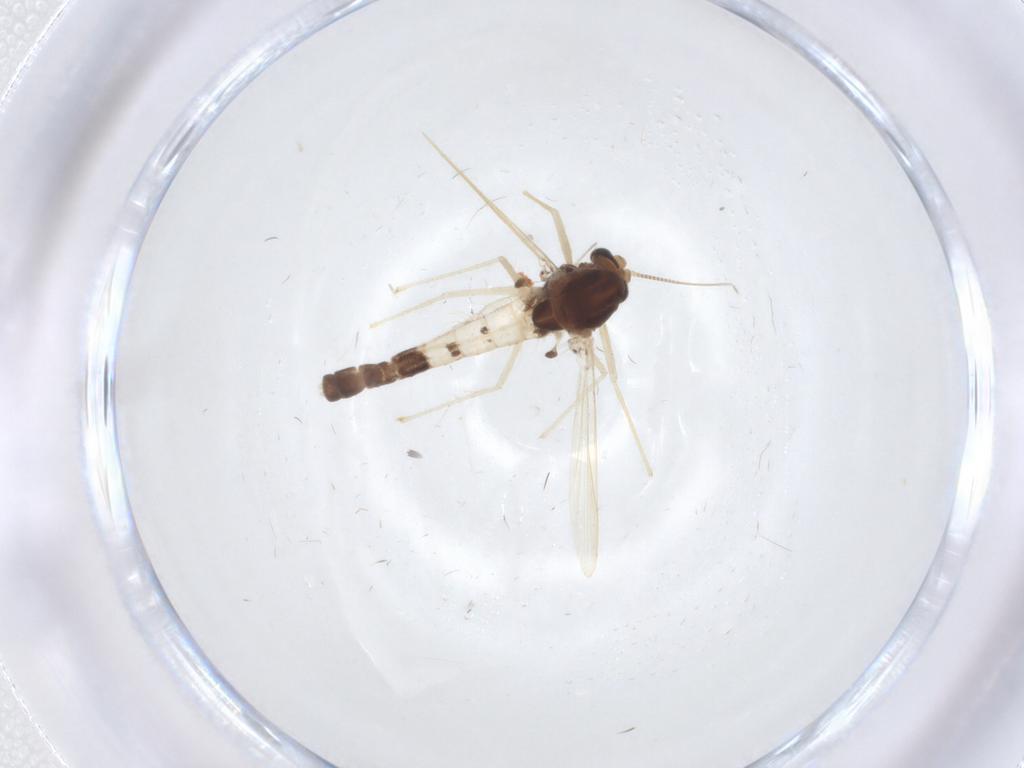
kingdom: Animalia
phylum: Arthropoda
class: Insecta
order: Diptera
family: Chironomidae
